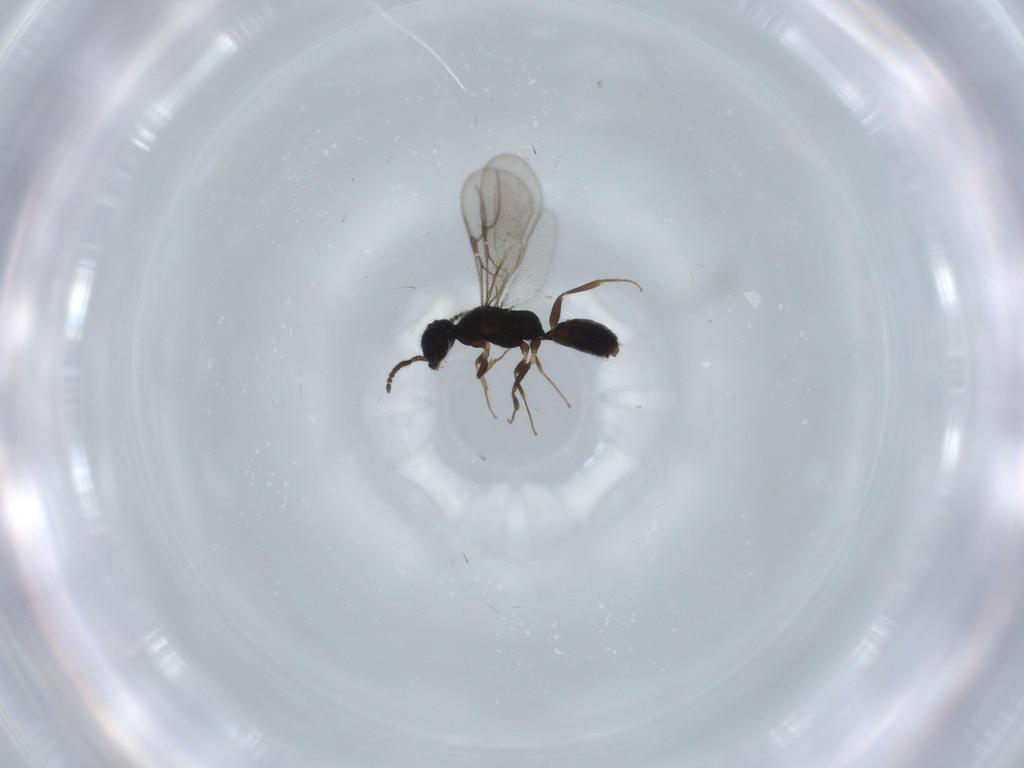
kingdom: Animalia
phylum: Arthropoda
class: Insecta
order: Hymenoptera
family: Bethylidae
